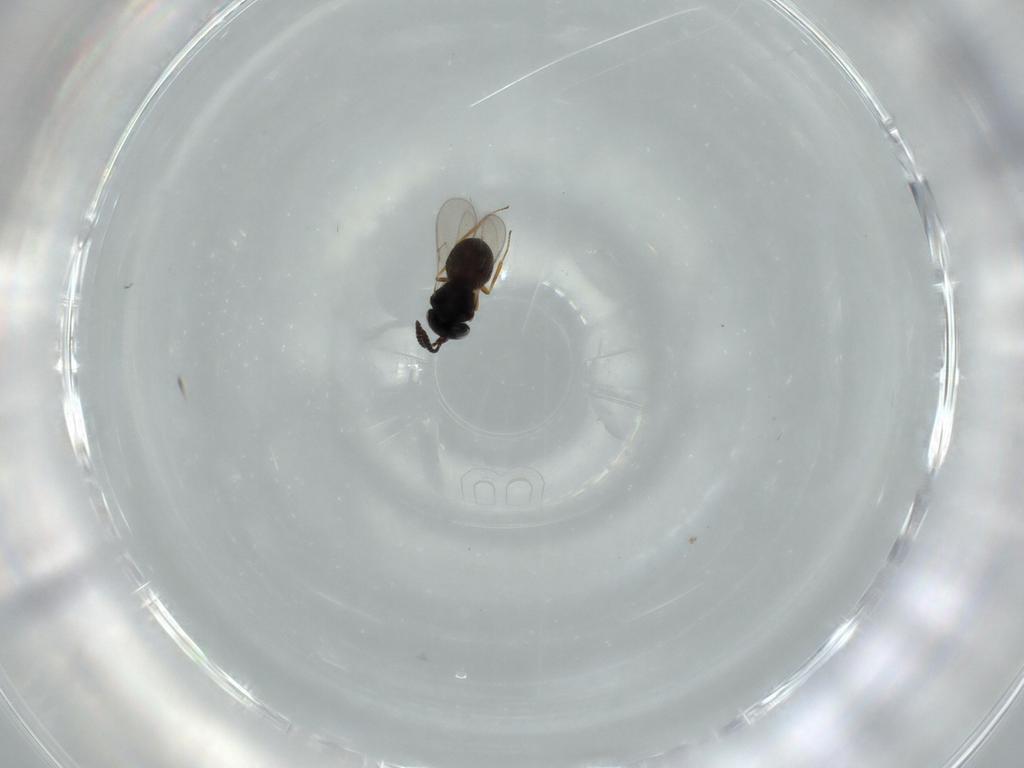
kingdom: Animalia
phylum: Arthropoda
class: Insecta
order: Hymenoptera
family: Scelionidae
